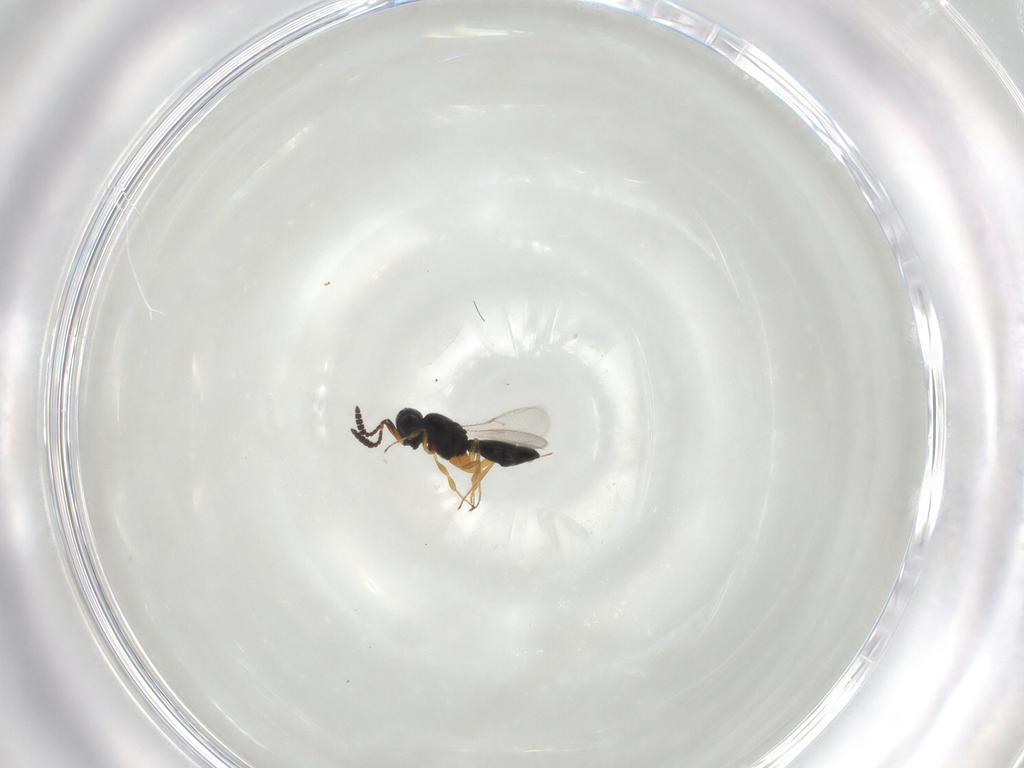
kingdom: Animalia
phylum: Arthropoda
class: Insecta
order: Hymenoptera
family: Scelionidae
